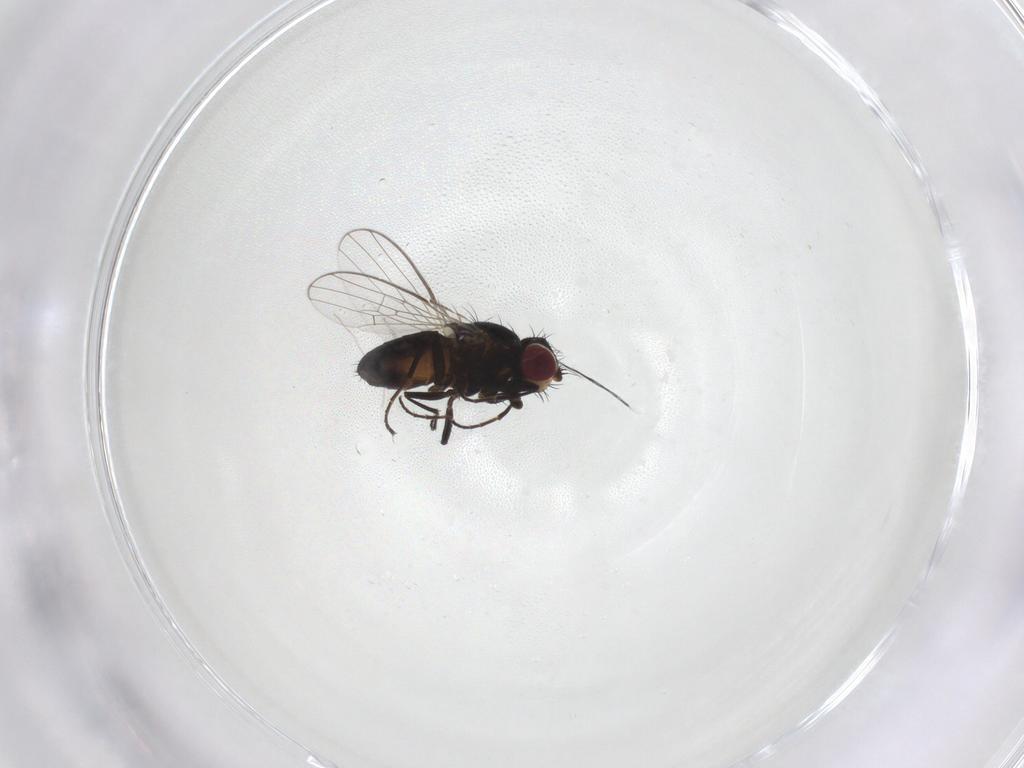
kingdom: Animalia
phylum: Arthropoda
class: Insecta
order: Diptera
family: Carnidae
